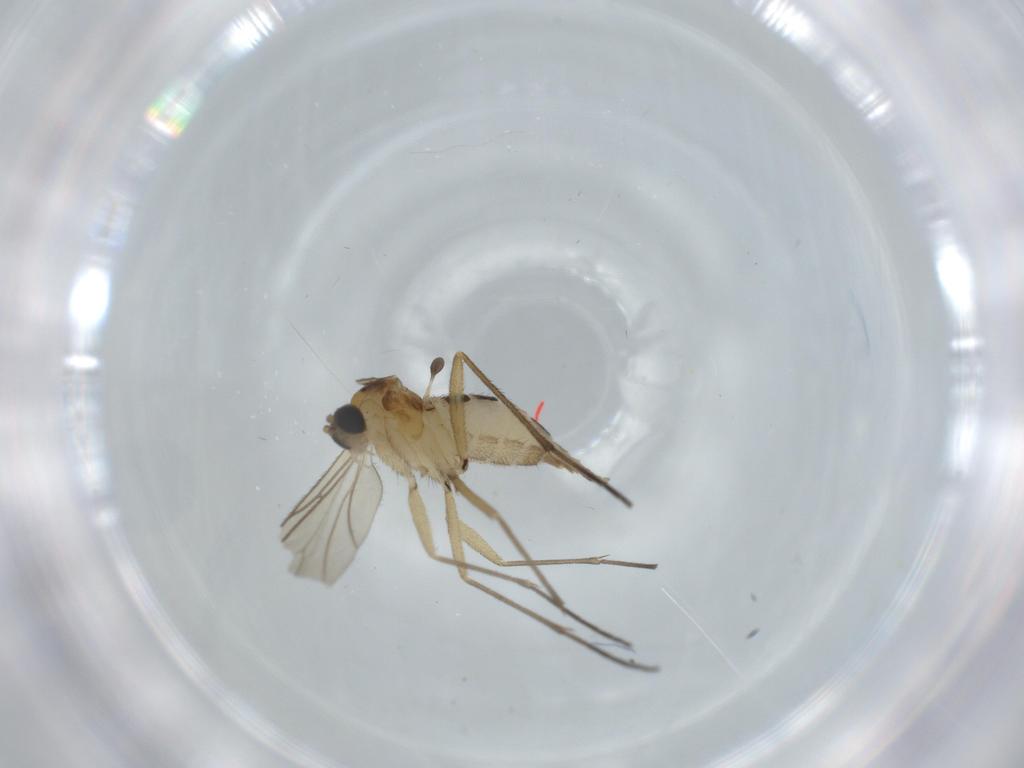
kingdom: Animalia
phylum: Arthropoda
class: Insecta
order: Diptera
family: Sciaridae
